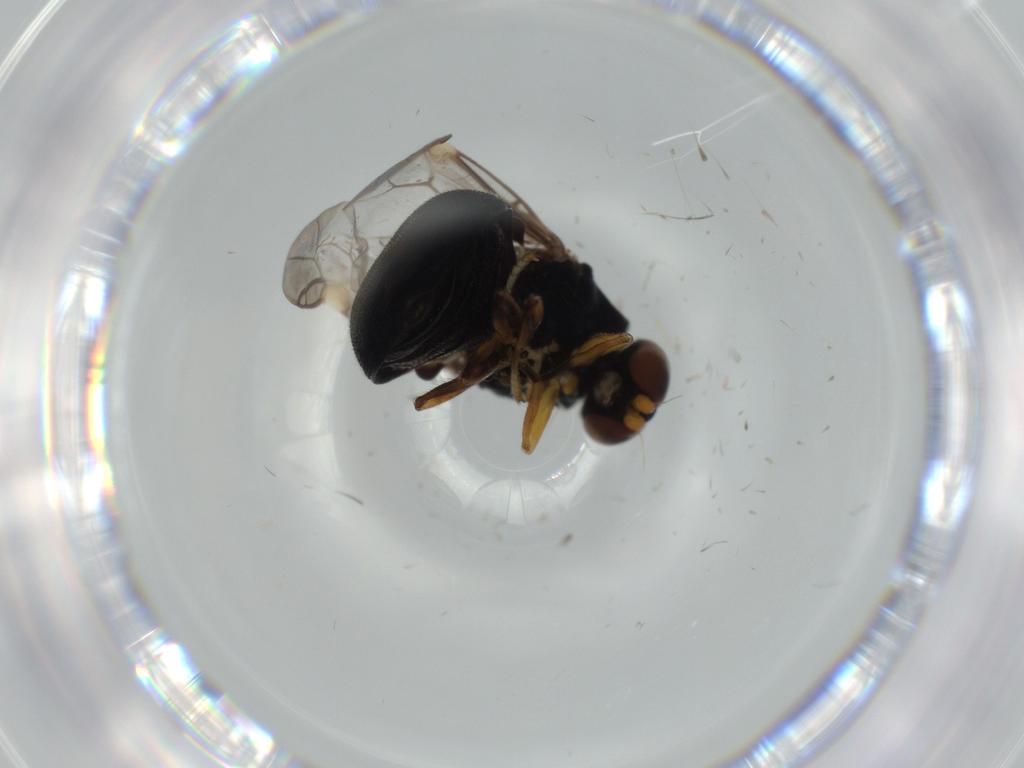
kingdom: Animalia
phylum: Arthropoda
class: Insecta
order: Diptera
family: Stratiomyidae
